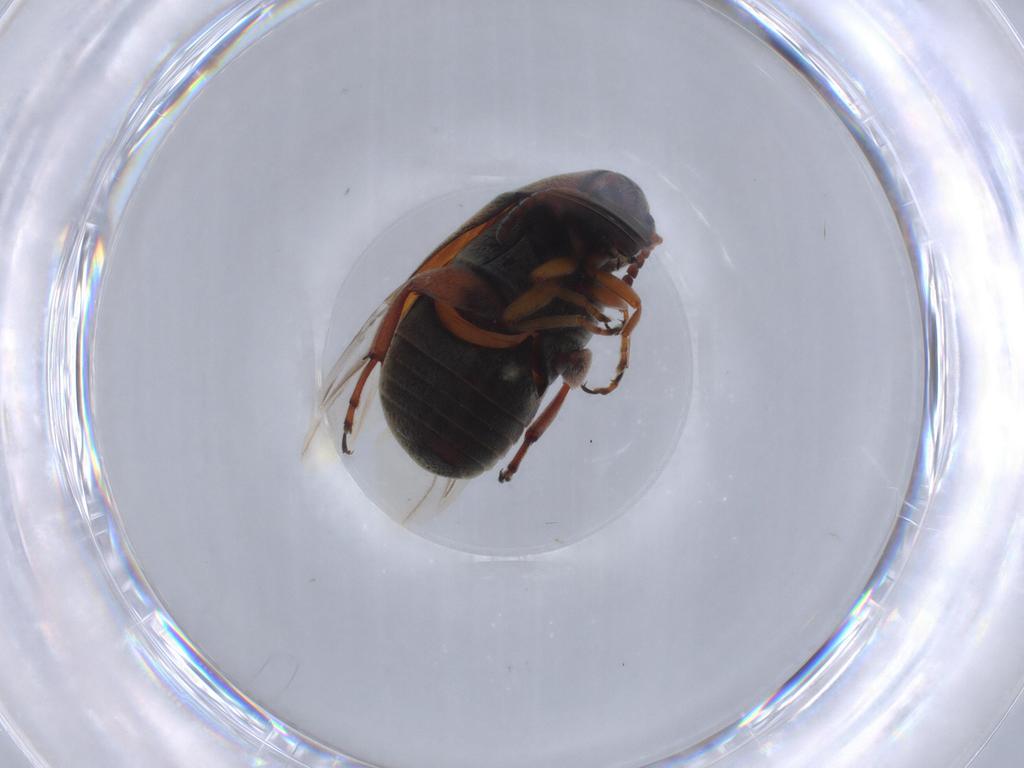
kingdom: Animalia
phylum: Arthropoda
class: Insecta
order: Coleoptera
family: Chrysomelidae
